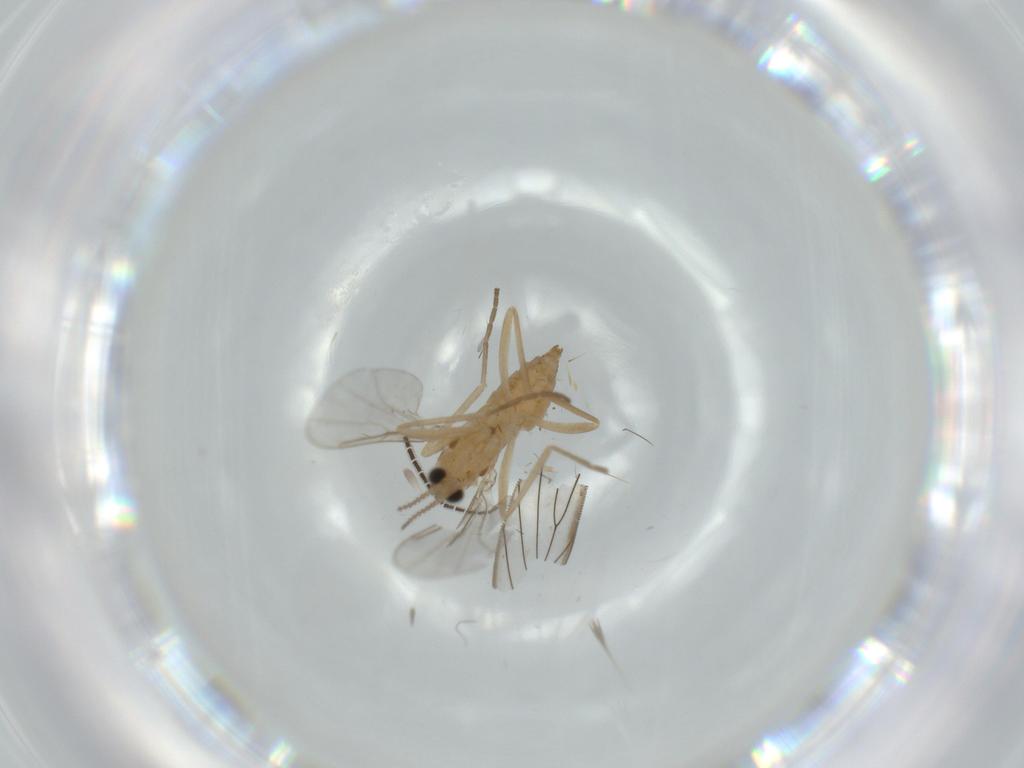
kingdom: Animalia
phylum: Arthropoda
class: Insecta
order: Diptera
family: Cecidomyiidae
